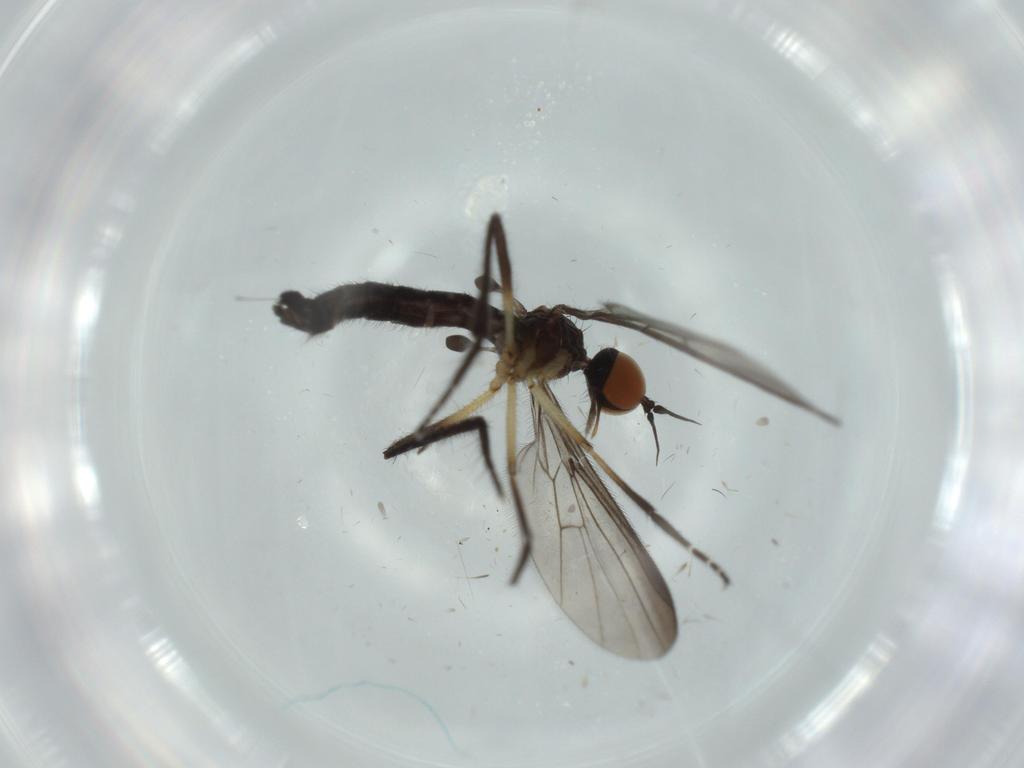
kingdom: Animalia
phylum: Arthropoda
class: Insecta
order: Diptera
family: Empididae
